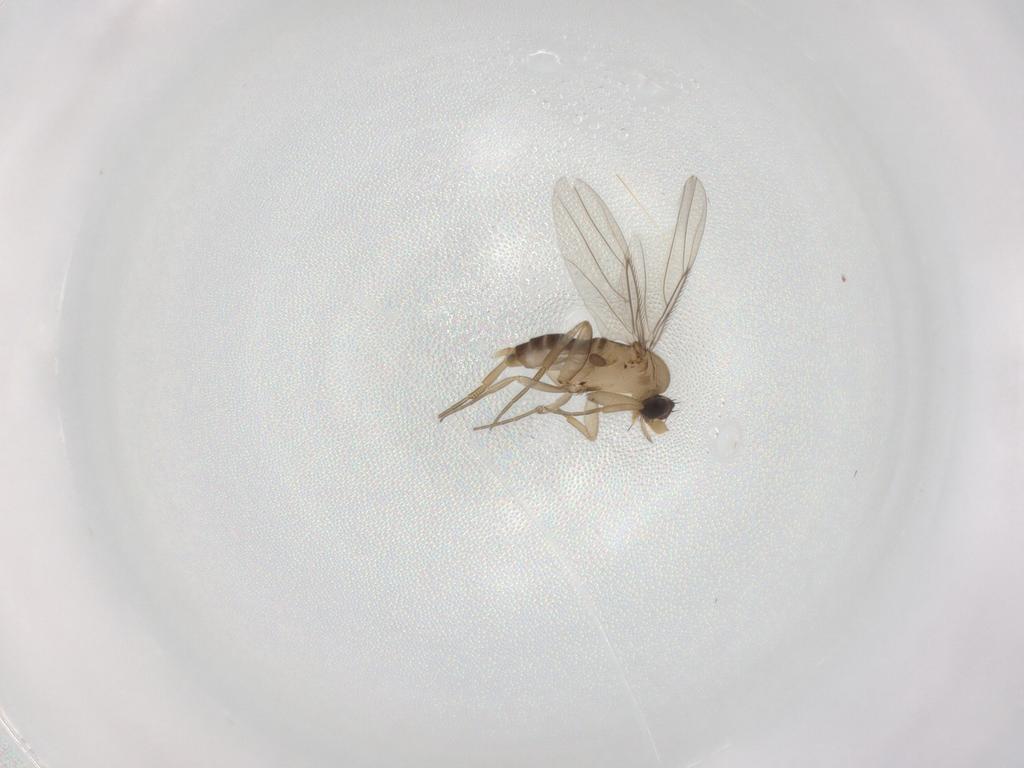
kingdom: Animalia
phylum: Arthropoda
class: Insecta
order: Diptera
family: Phoridae
